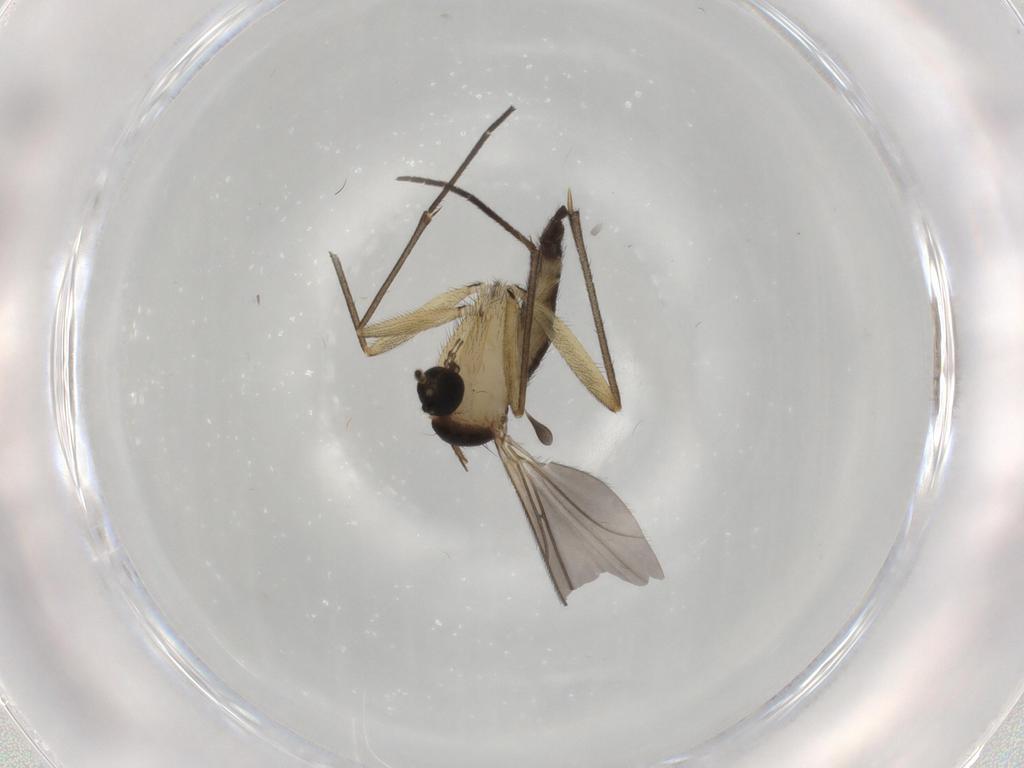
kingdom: Animalia
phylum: Arthropoda
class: Insecta
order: Diptera
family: Sciaridae
